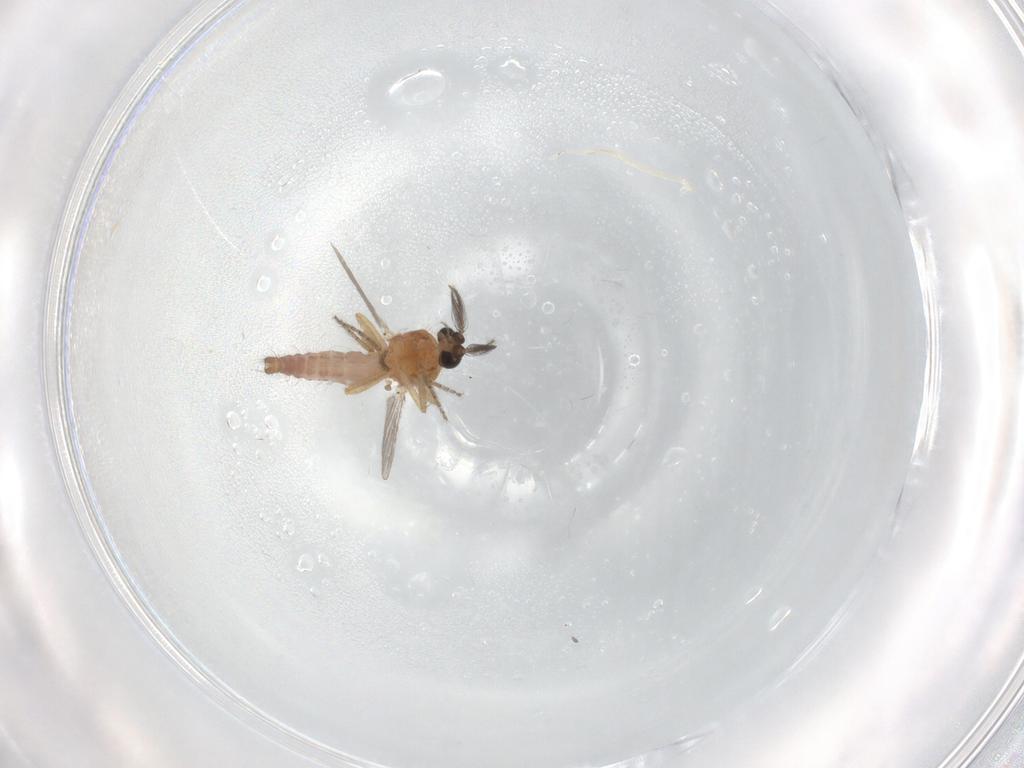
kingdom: Animalia
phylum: Arthropoda
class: Insecta
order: Diptera
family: Ceratopogonidae
